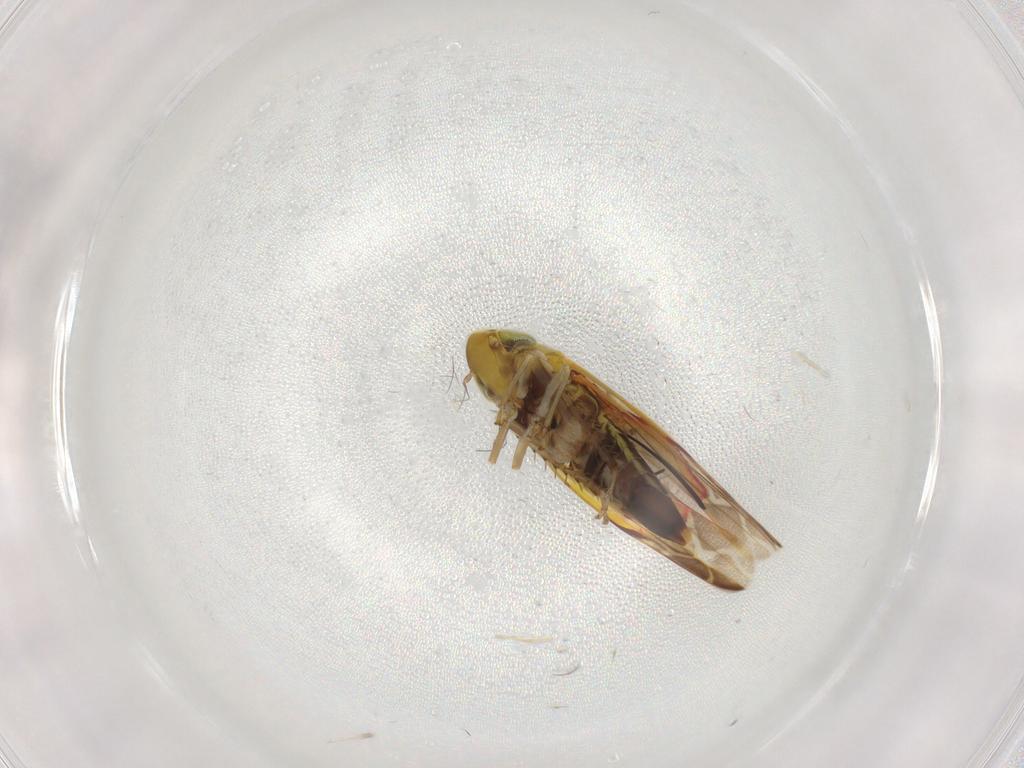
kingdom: Animalia
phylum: Arthropoda
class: Insecta
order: Hemiptera
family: Cicadellidae
